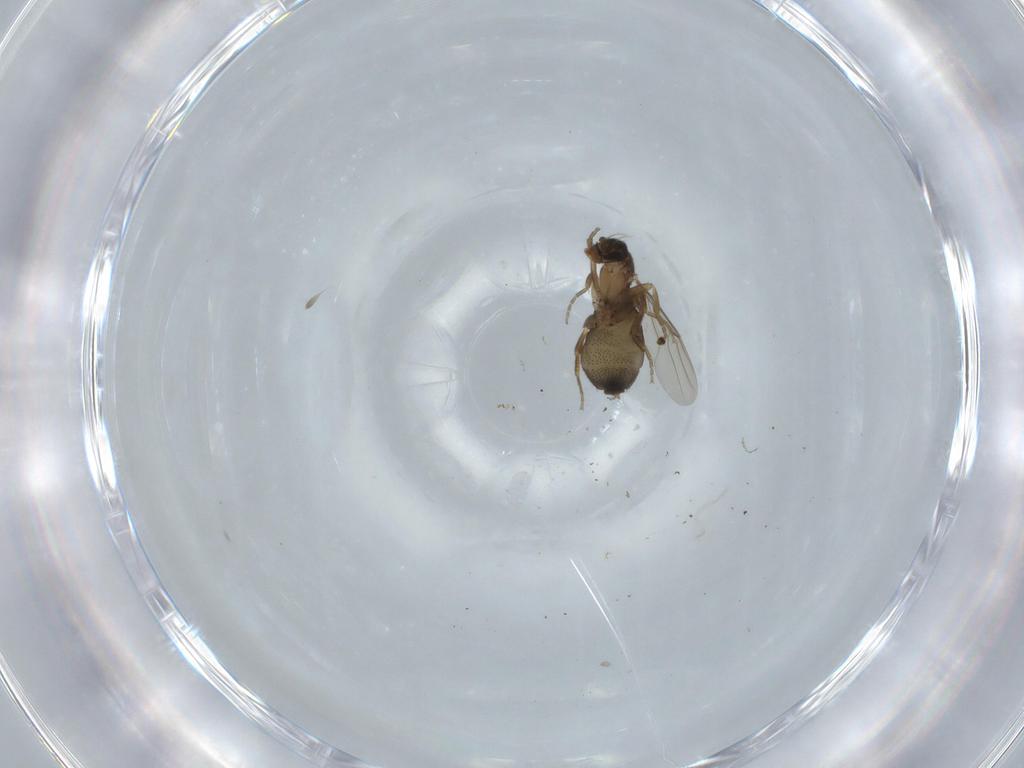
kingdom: Animalia
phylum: Arthropoda
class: Insecta
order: Diptera
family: Phoridae
